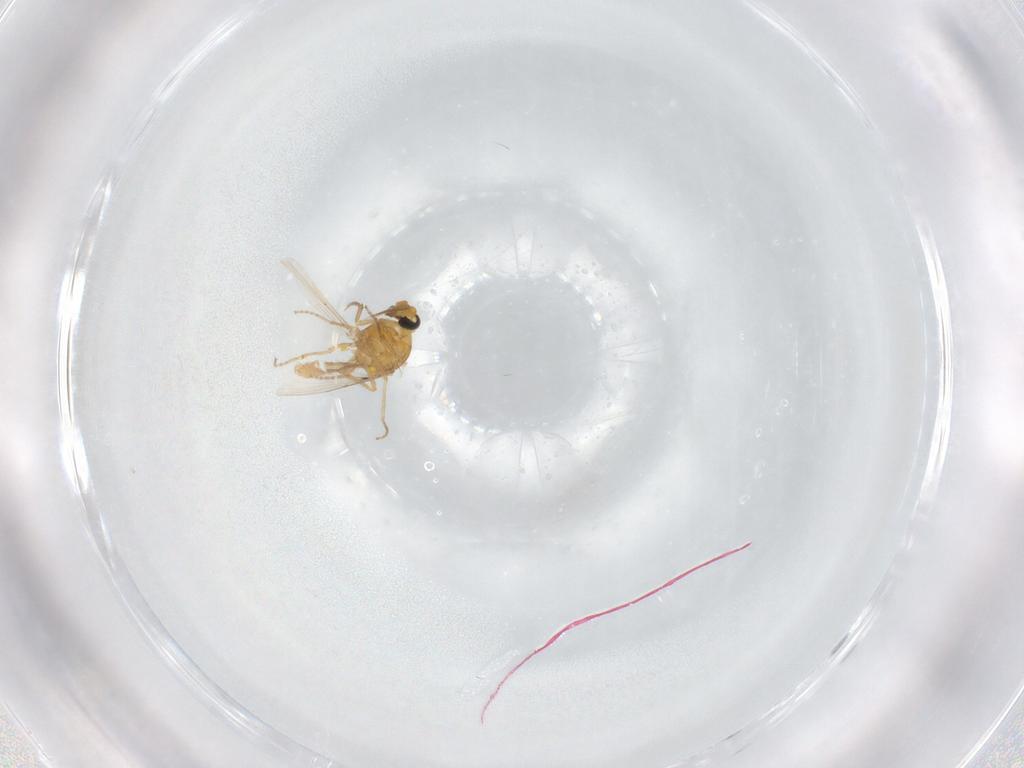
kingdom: Animalia
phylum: Arthropoda
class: Insecta
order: Diptera
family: Ceratopogonidae
